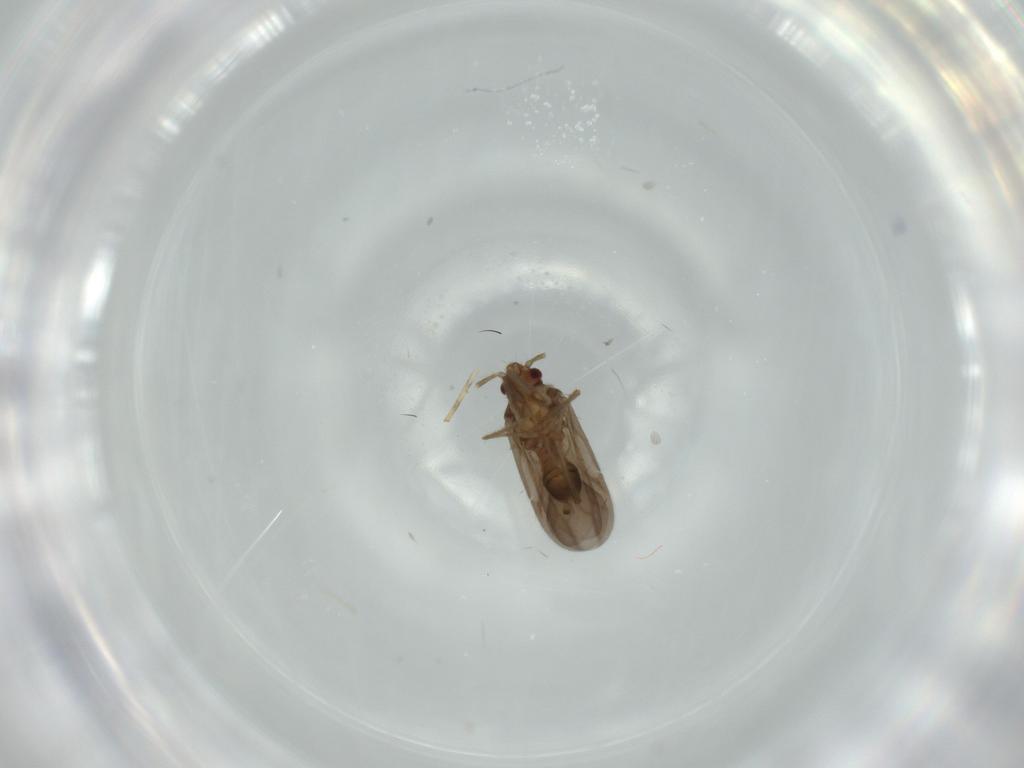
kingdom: Animalia
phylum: Arthropoda
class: Insecta
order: Hemiptera
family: Ceratocombidae
